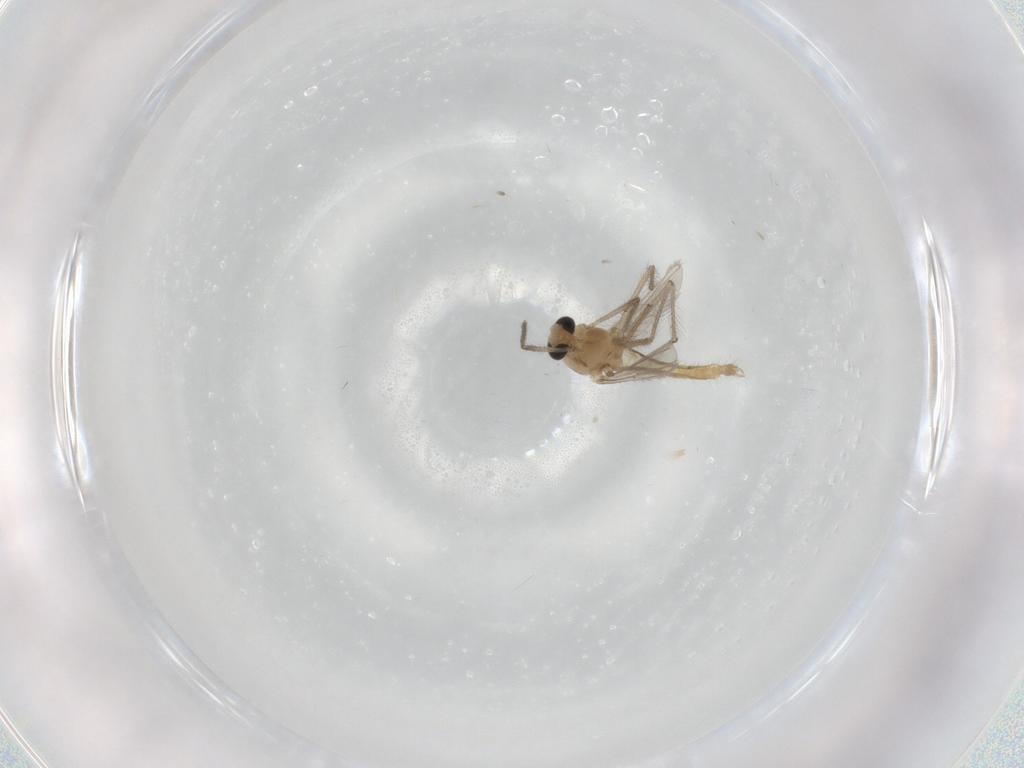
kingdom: Animalia
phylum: Arthropoda
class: Insecta
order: Diptera
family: Chironomidae
